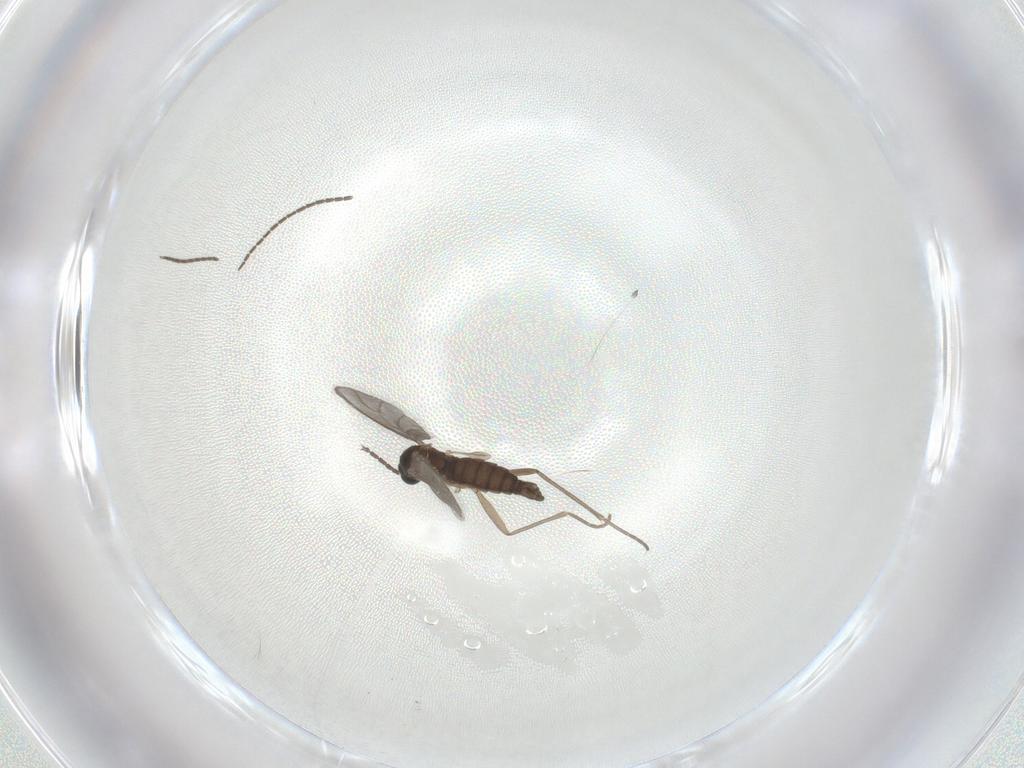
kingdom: Animalia
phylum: Arthropoda
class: Insecta
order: Diptera
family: Sciaridae
